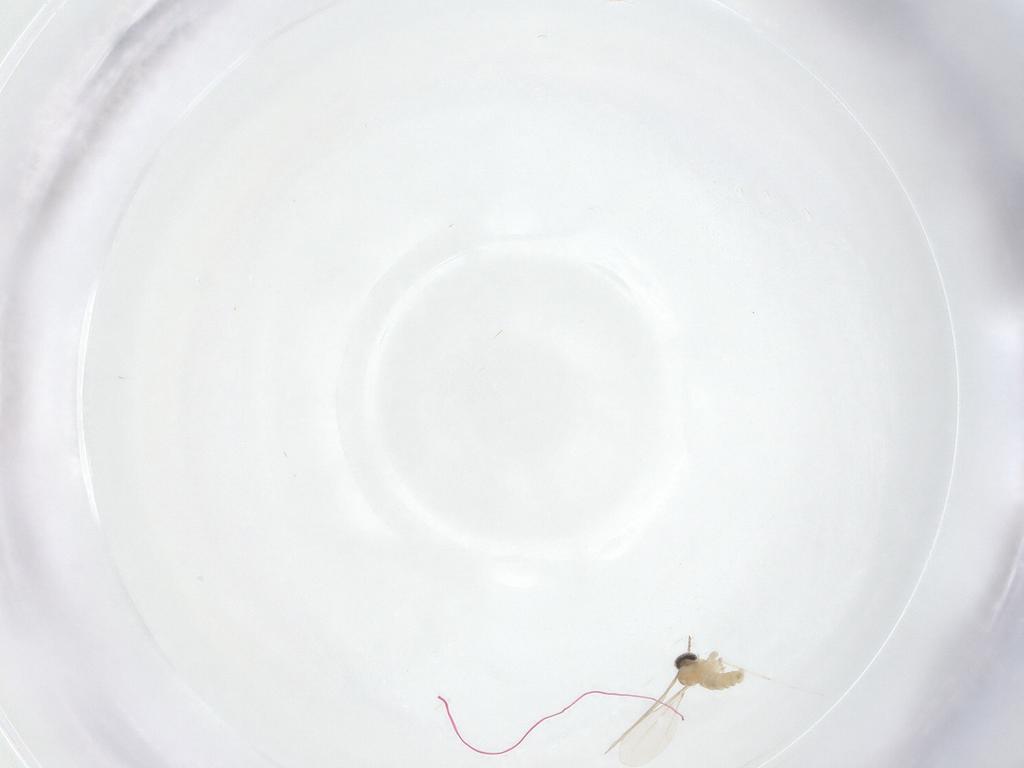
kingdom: Animalia
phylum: Arthropoda
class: Insecta
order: Diptera
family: Cecidomyiidae
